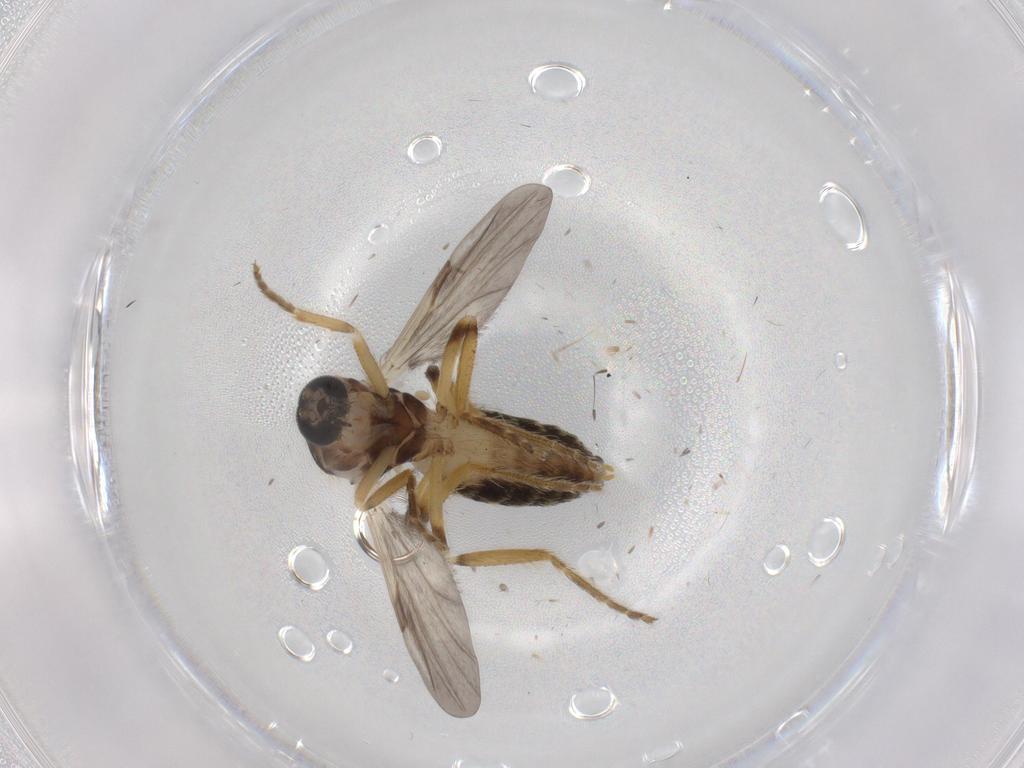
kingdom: Animalia
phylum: Arthropoda
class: Insecta
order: Diptera
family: Ceratopogonidae
